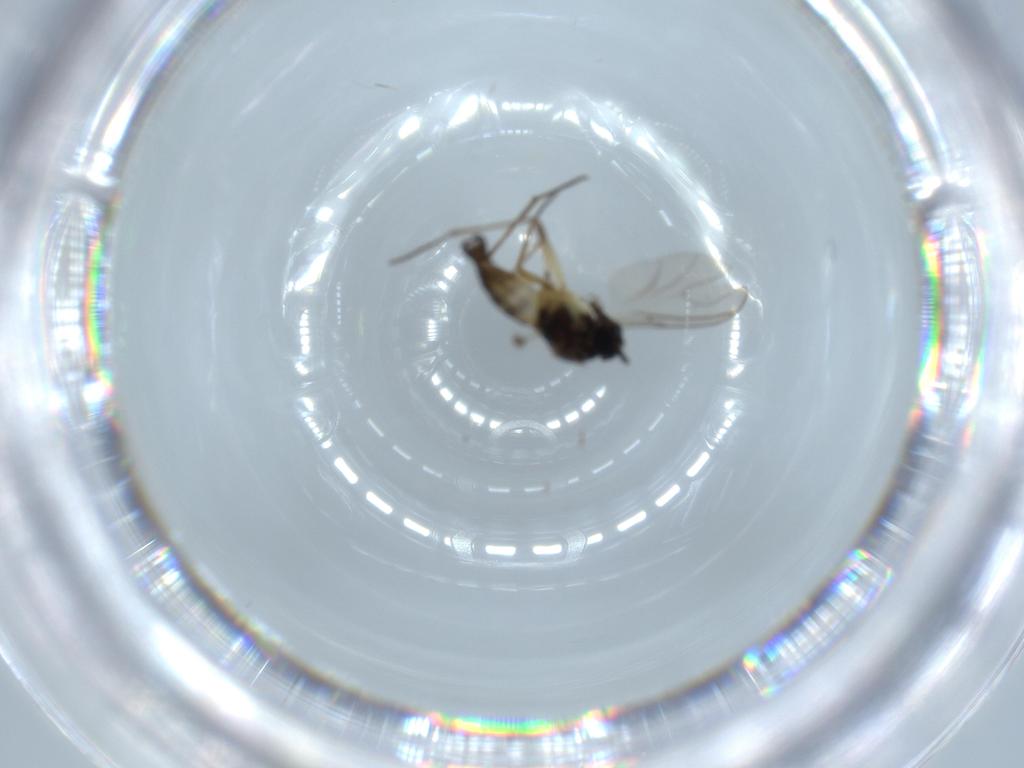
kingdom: Animalia
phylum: Arthropoda
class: Insecta
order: Diptera
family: Sciaridae
